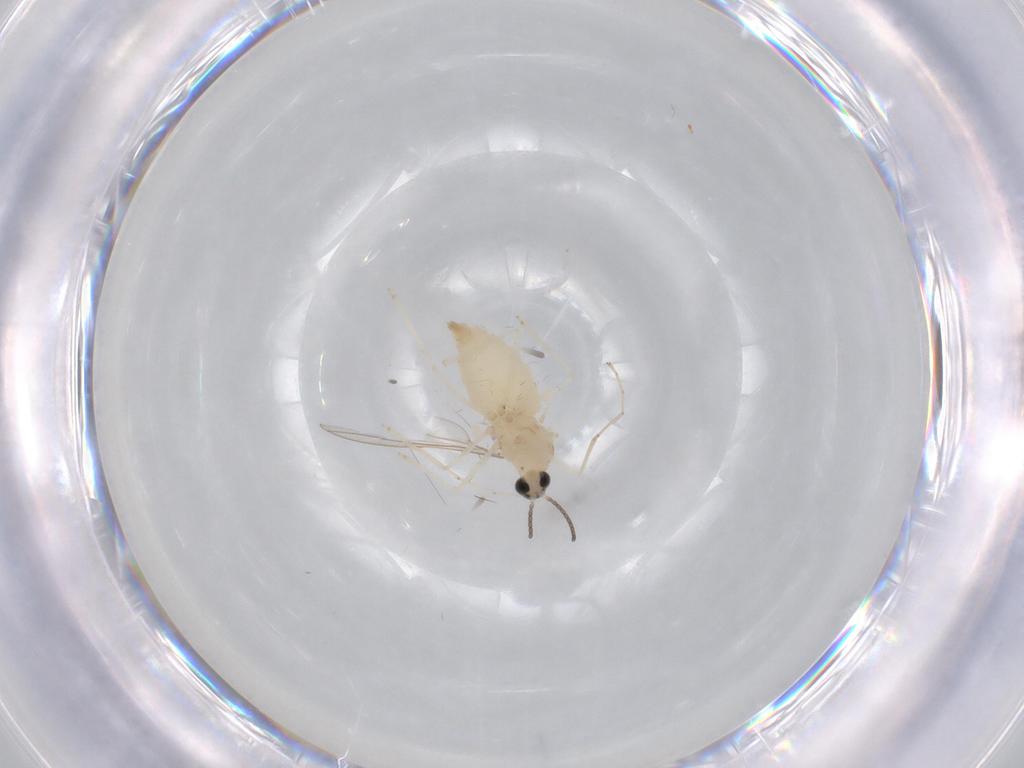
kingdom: Animalia
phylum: Arthropoda
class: Insecta
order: Diptera
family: Cecidomyiidae
